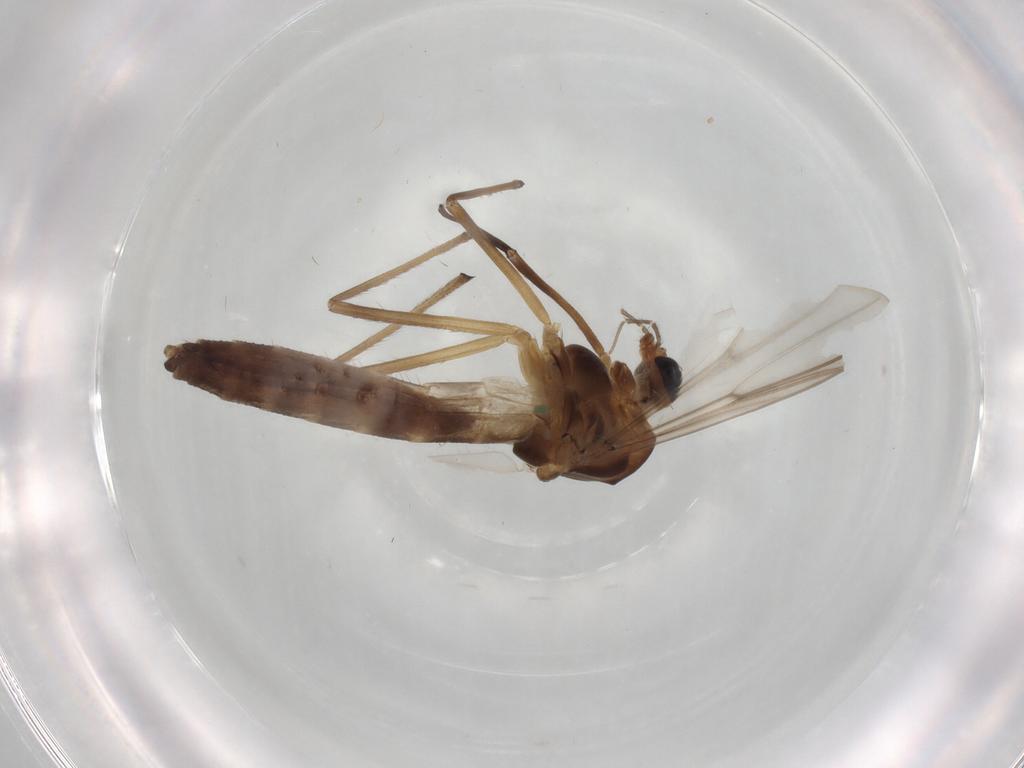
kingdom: Animalia
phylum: Arthropoda
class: Insecta
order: Diptera
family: Chironomidae
